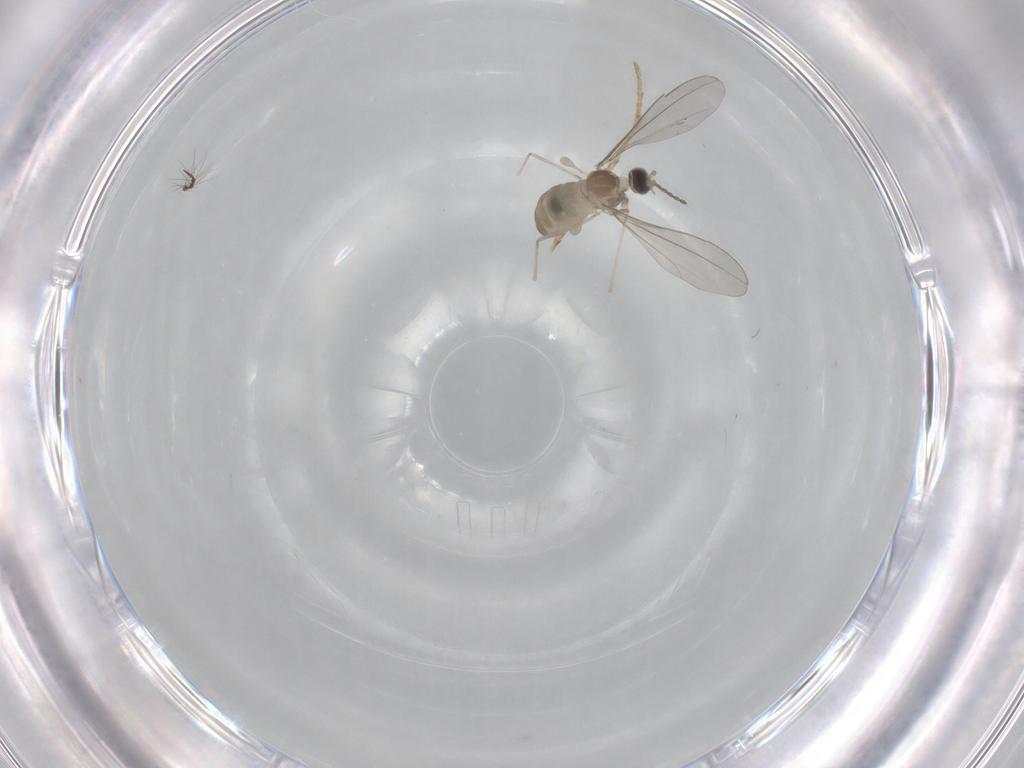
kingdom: Animalia
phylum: Arthropoda
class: Insecta
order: Diptera
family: Cecidomyiidae
